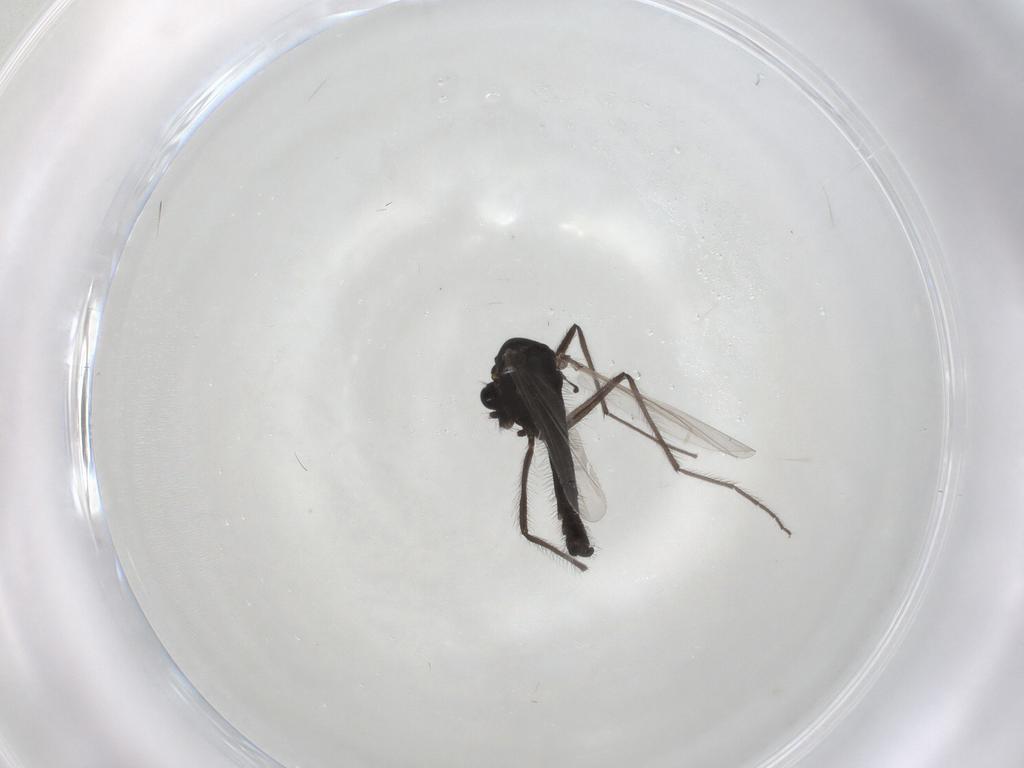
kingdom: Animalia
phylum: Arthropoda
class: Insecta
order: Diptera
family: Chironomidae
